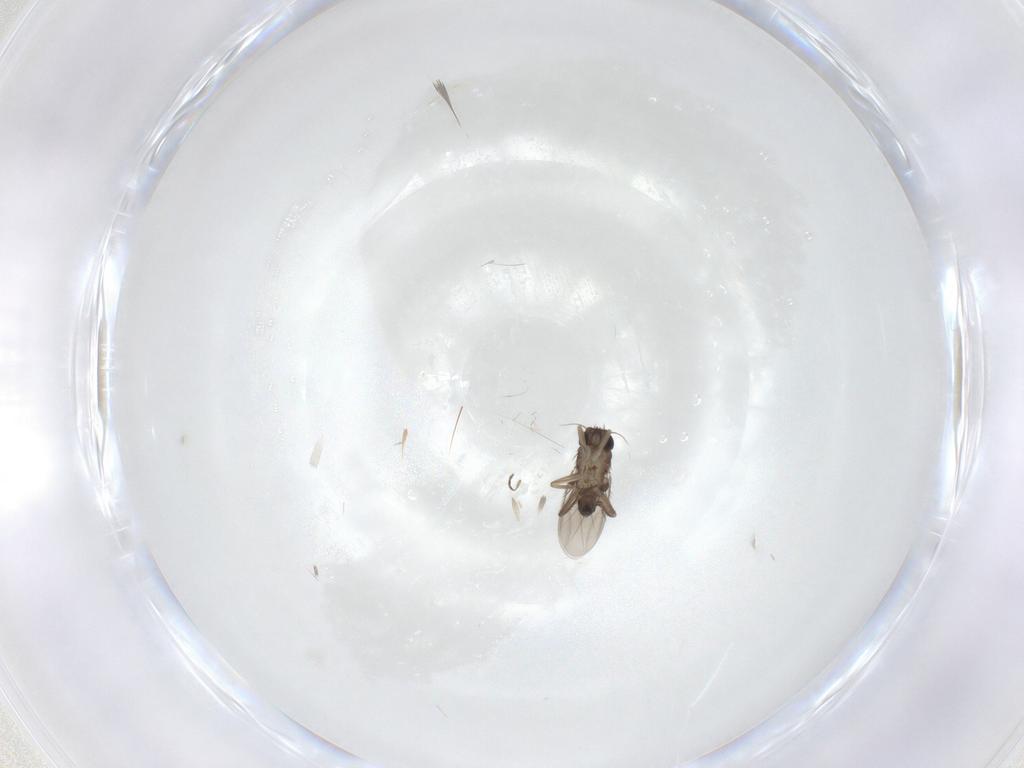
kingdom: Animalia
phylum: Arthropoda
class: Insecta
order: Diptera
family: Phoridae
